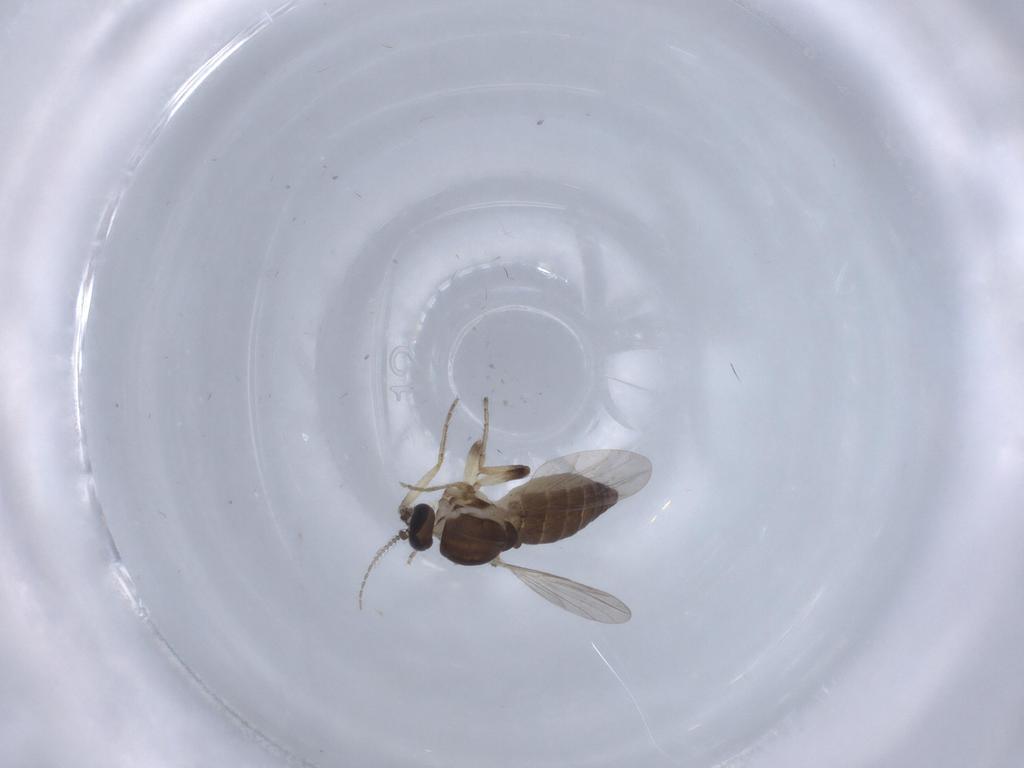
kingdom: Animalia
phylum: Arthropoda
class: Insecta
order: Diptera
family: Ceratopogonidae
